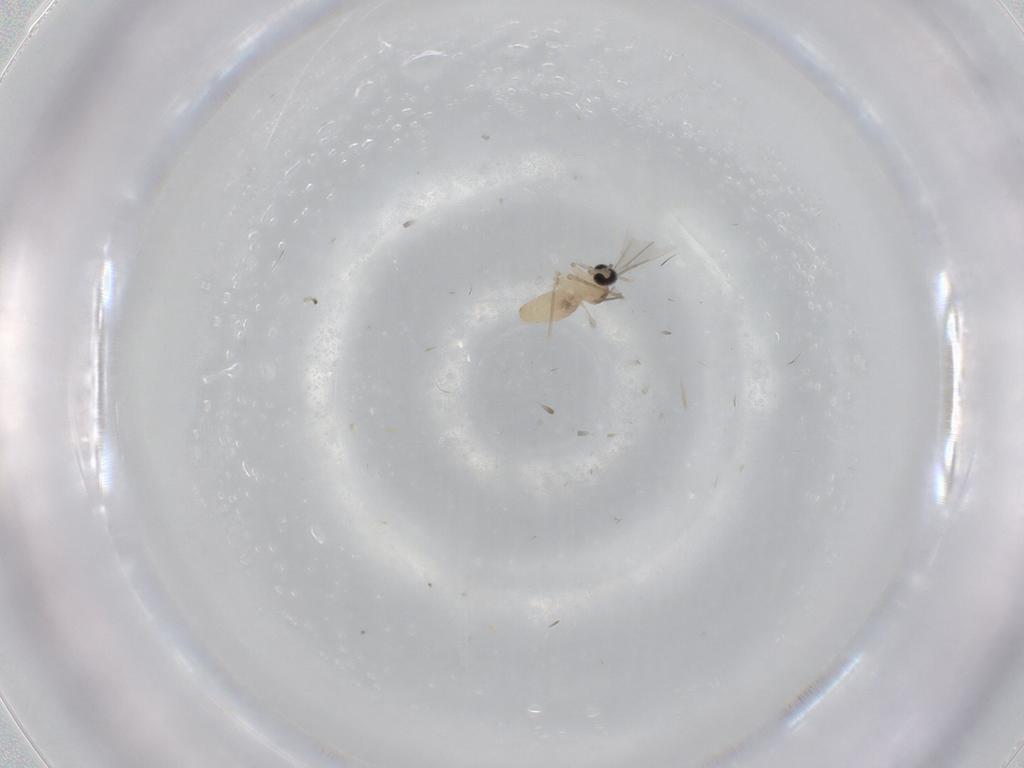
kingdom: Animalia
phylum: Arthropoda
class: Insecta
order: Diptera
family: Cecidomyiidae
